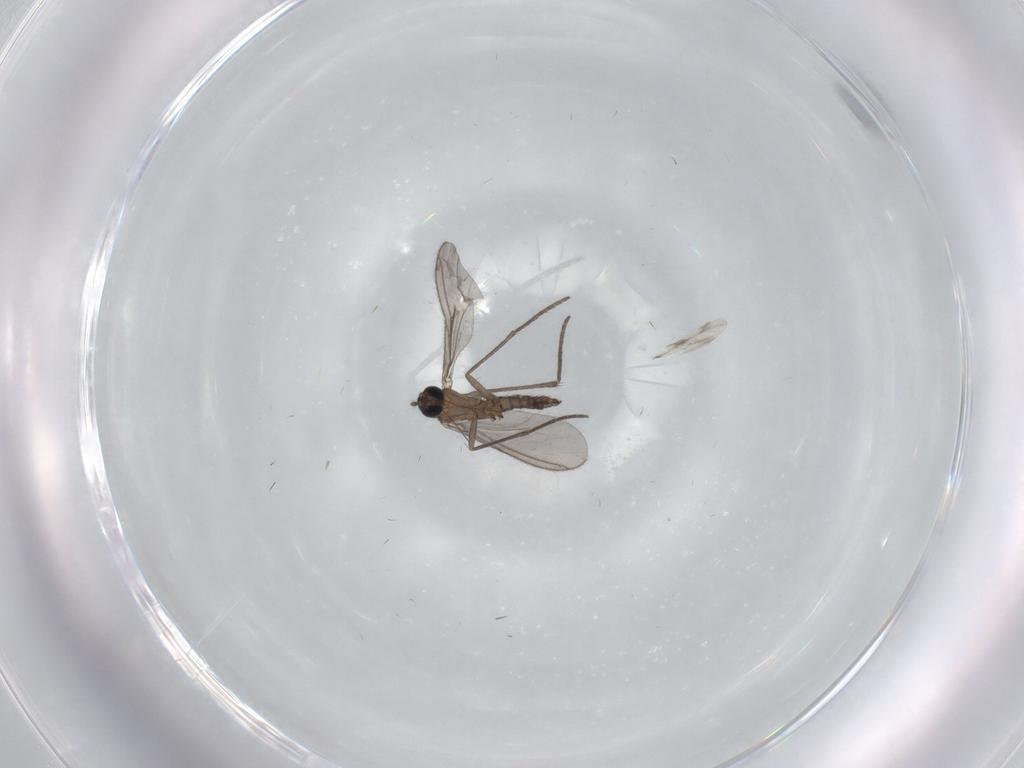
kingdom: Animalia
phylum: Arthropoda
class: Insecta
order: Diptera
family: Sciaridae
